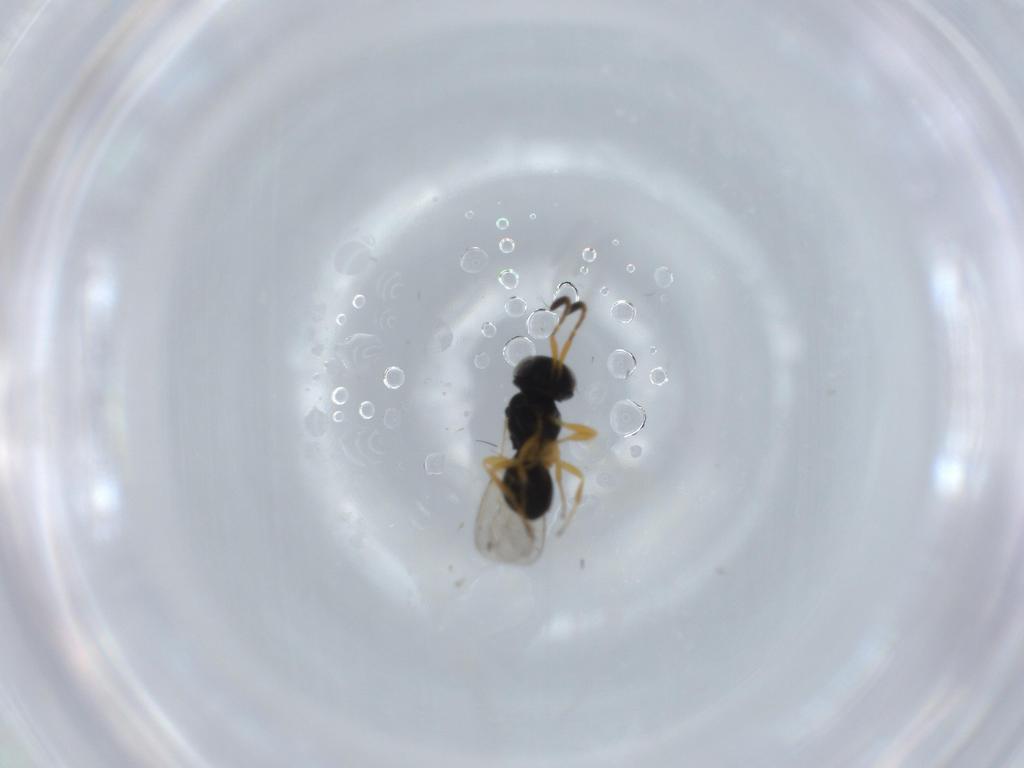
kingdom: Animalia
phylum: Arthropoda
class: Insecta
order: Hymenoptera
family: Scelionidae
